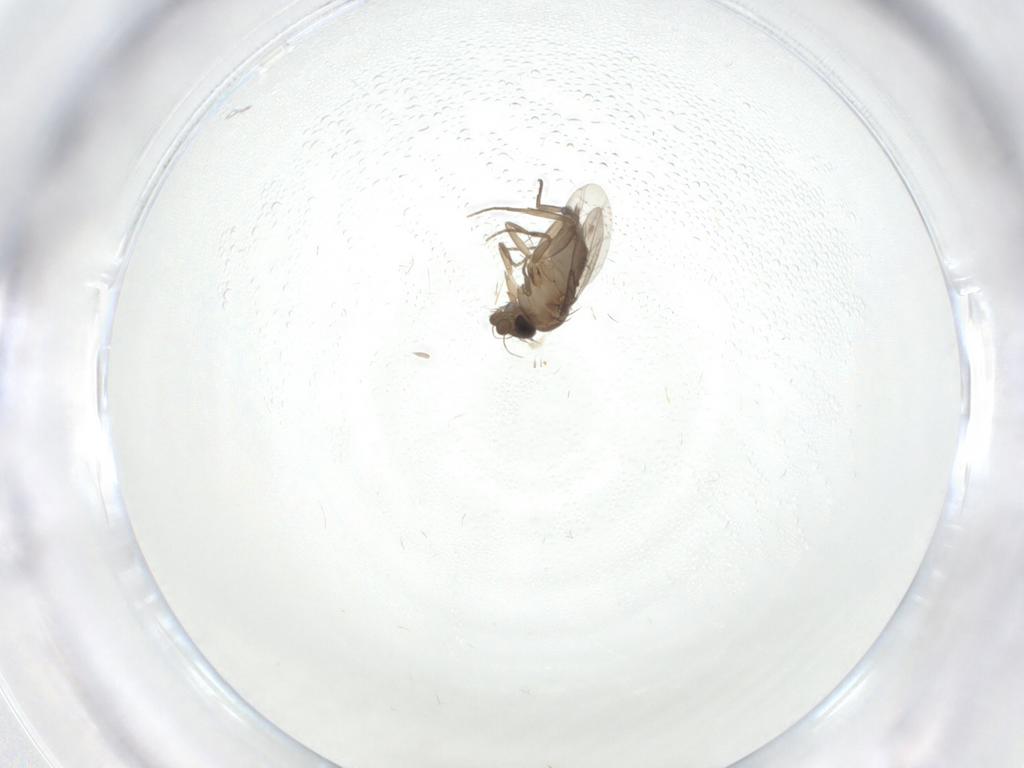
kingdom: Animalia
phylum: Arthropoda
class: Insecta
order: Diptera
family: Phoridae
